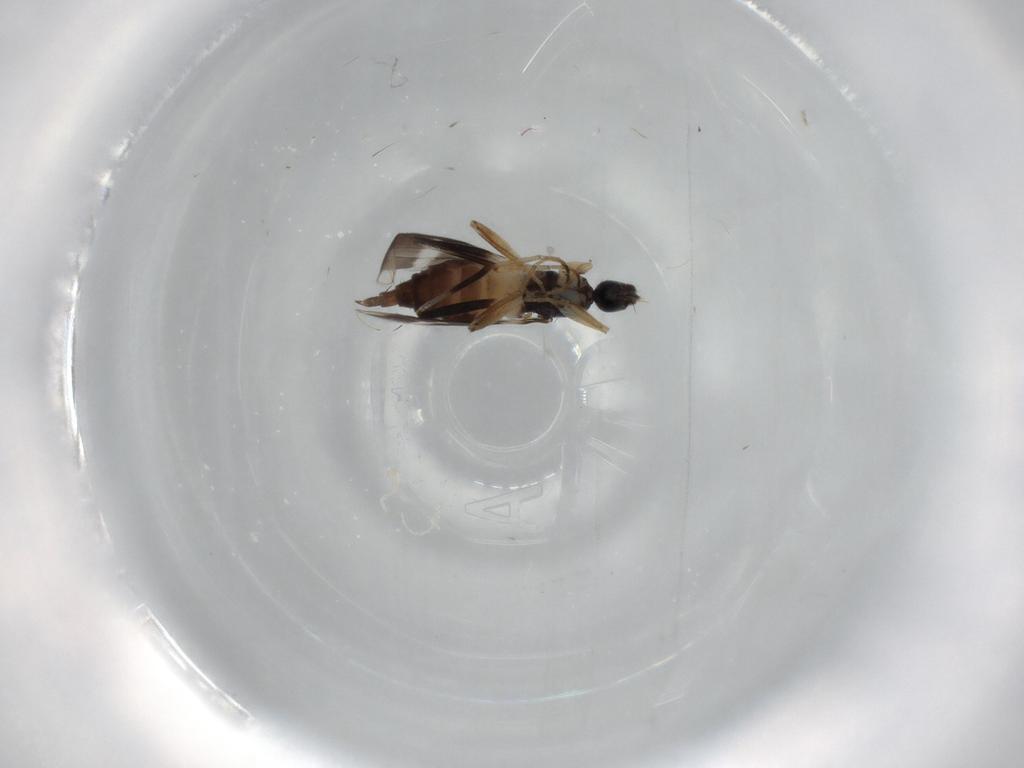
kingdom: Animalia
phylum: Arthropoda
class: Insecta
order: Diptera
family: Hybotidae
